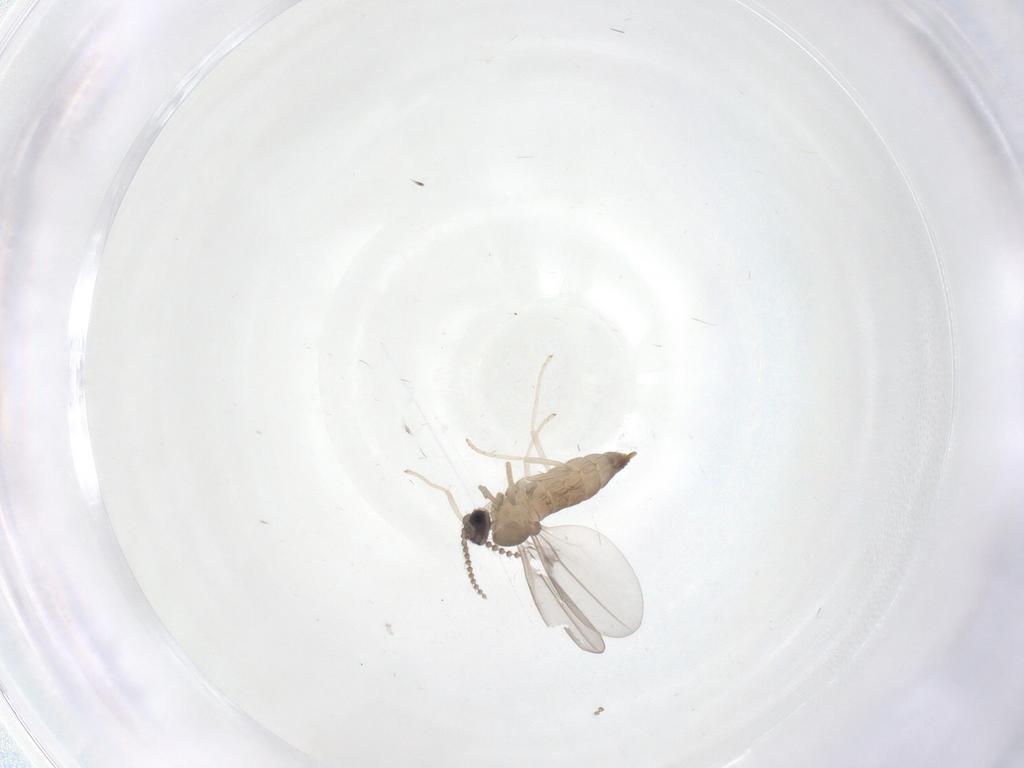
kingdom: Animalia
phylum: Arthropoda
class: Insecta
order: Diptera
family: Cecidomyiidae
